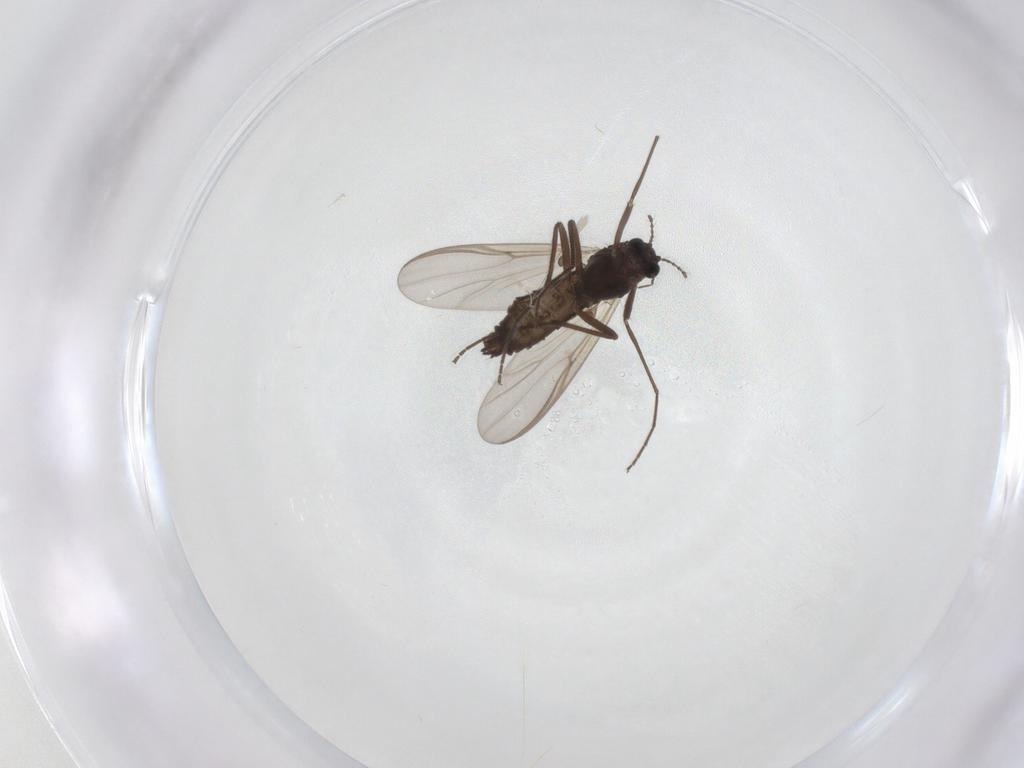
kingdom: Animalia
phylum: Arthropoda
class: Insecta
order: Diptera
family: Chironomidae
